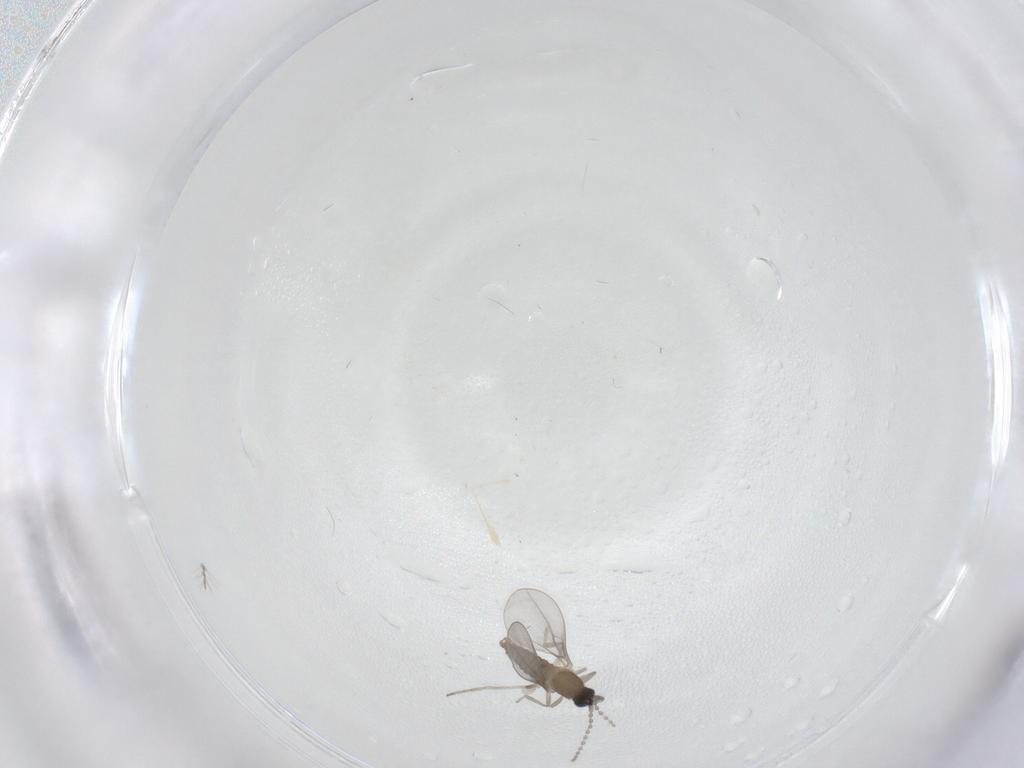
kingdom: Animalia
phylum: Arthropoda
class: Insecta
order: Diptera
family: Cecidomyiidae
